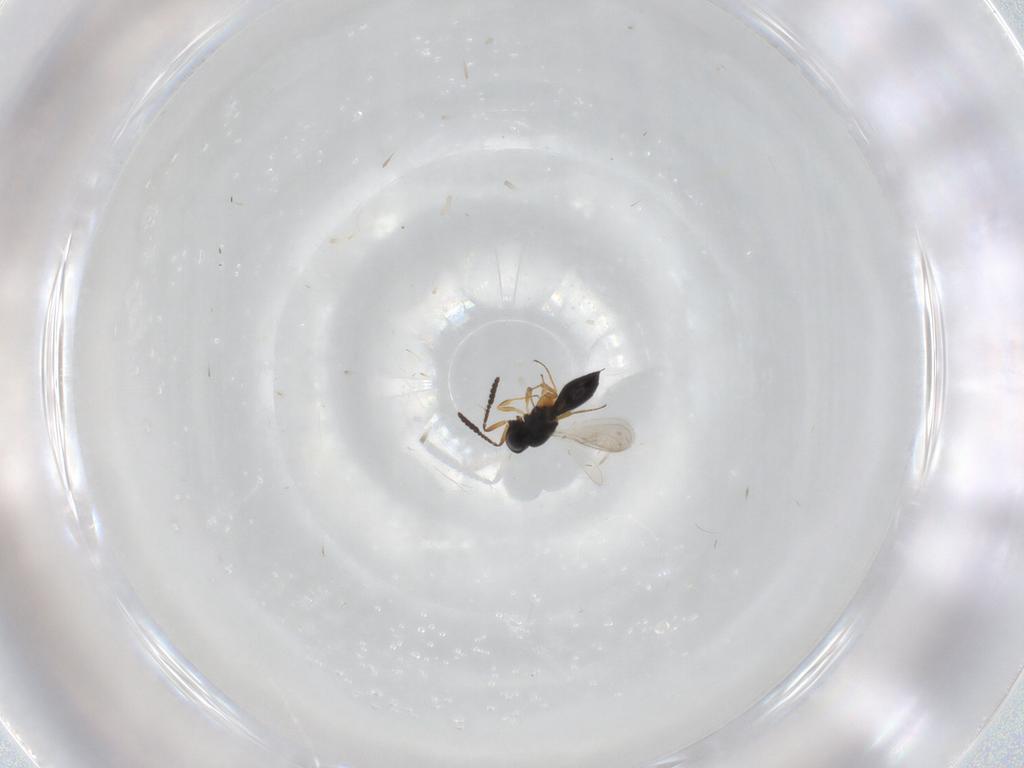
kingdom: Animalia
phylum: Arthropoda
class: Insecta
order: Hymenoptera
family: Scelionidae
